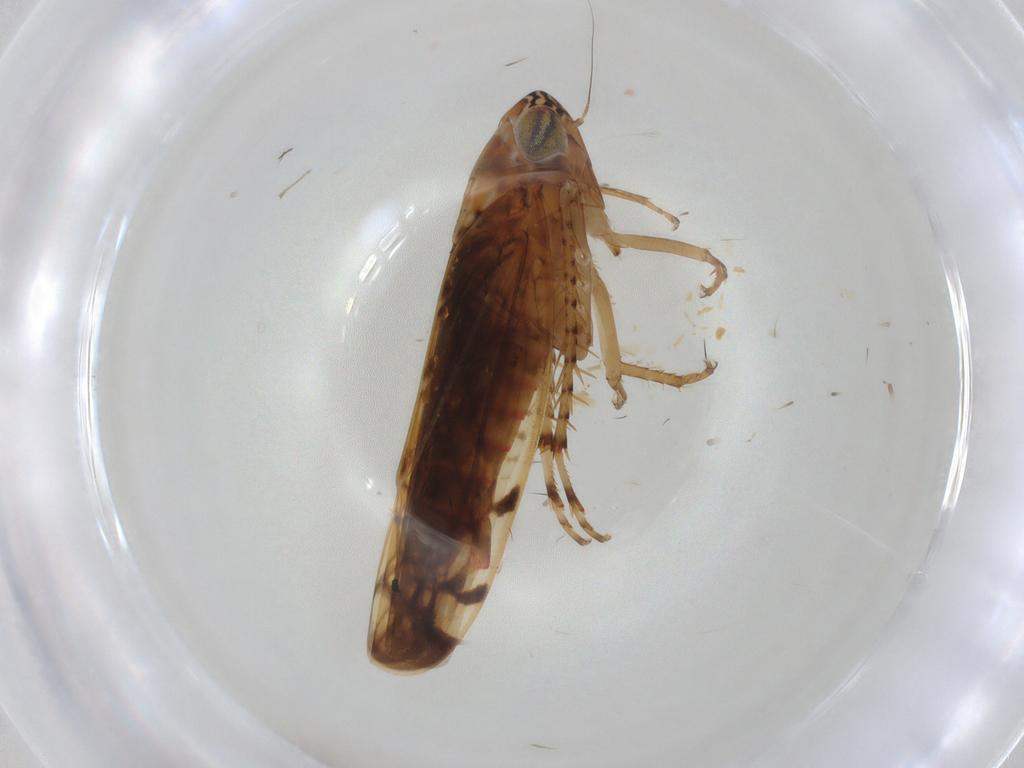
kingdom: Animalia
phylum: Arthropoda
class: Insecta
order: Hemiptera
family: Cicadellidae
